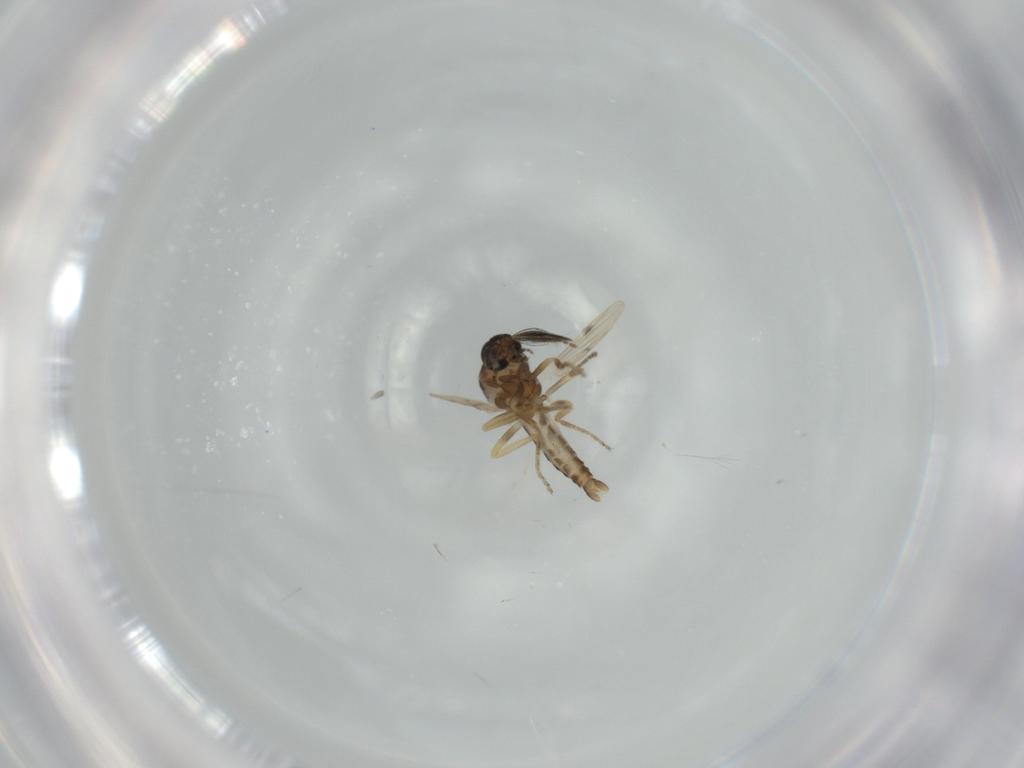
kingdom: Animalia
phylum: Arthropoda
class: Insecta
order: Diptera
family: Ceratopogonidae
